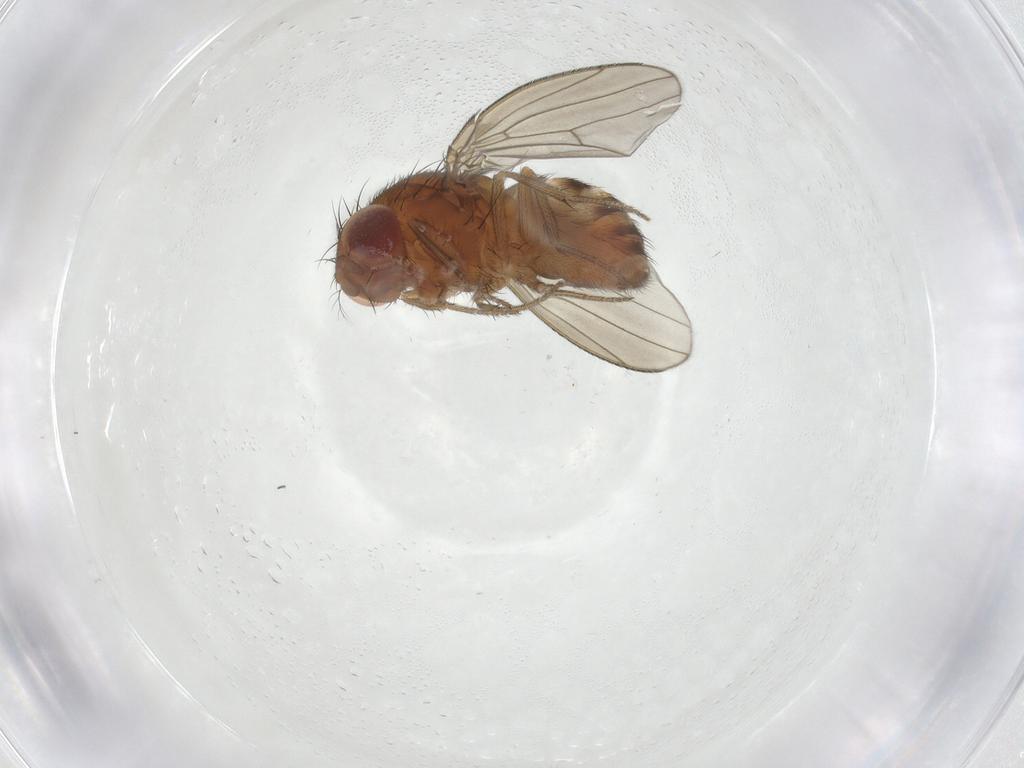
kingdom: Animalia
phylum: Arthropoda
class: Insecta
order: Diptera
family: Drosophilidae
